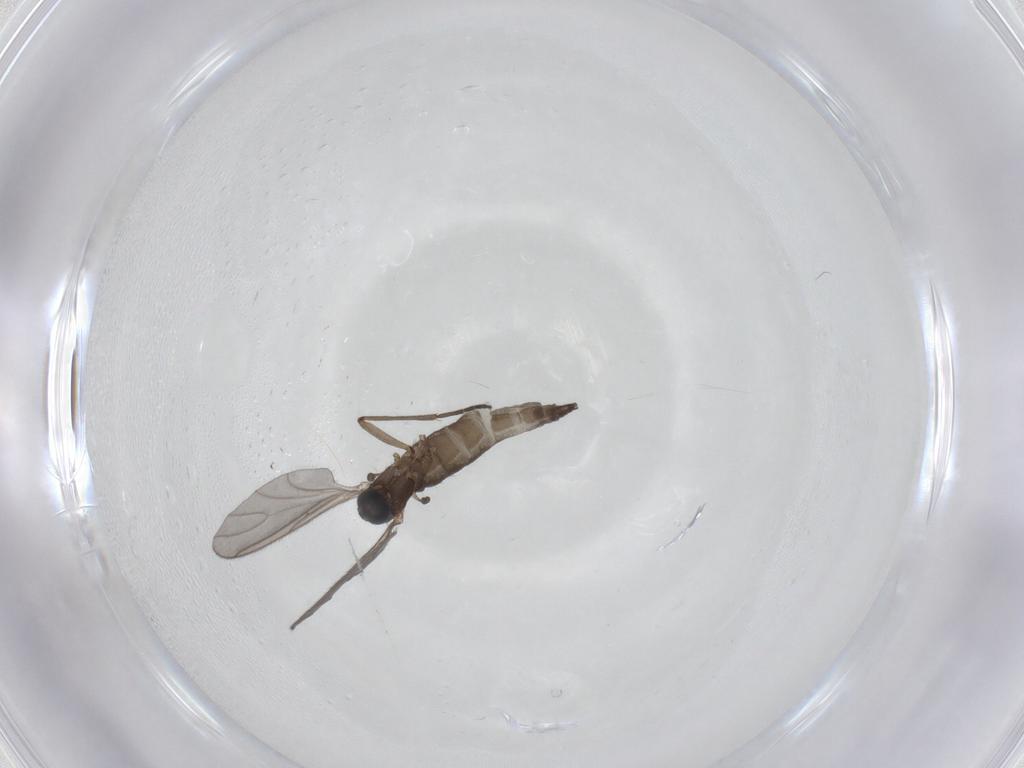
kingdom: Animalia
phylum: Arthropoda
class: Insecta
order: Diptera
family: Sciaridae
